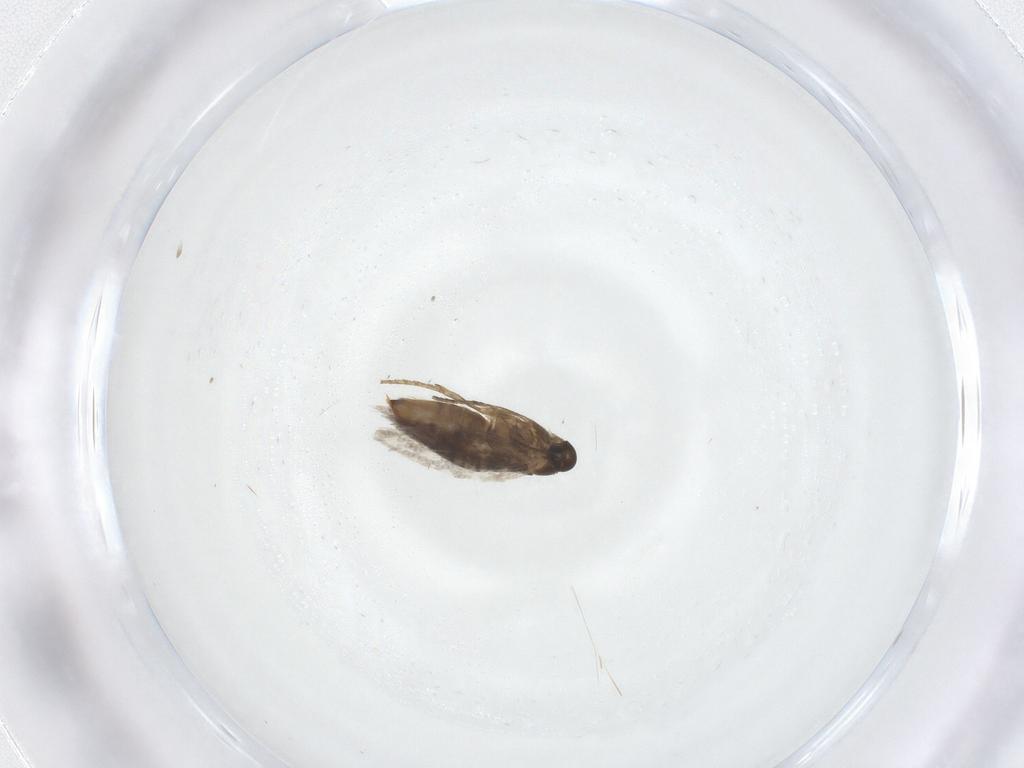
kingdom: Animalia
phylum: Arthropoda
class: Insecta
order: Lepidoptera
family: Heliozelidae
